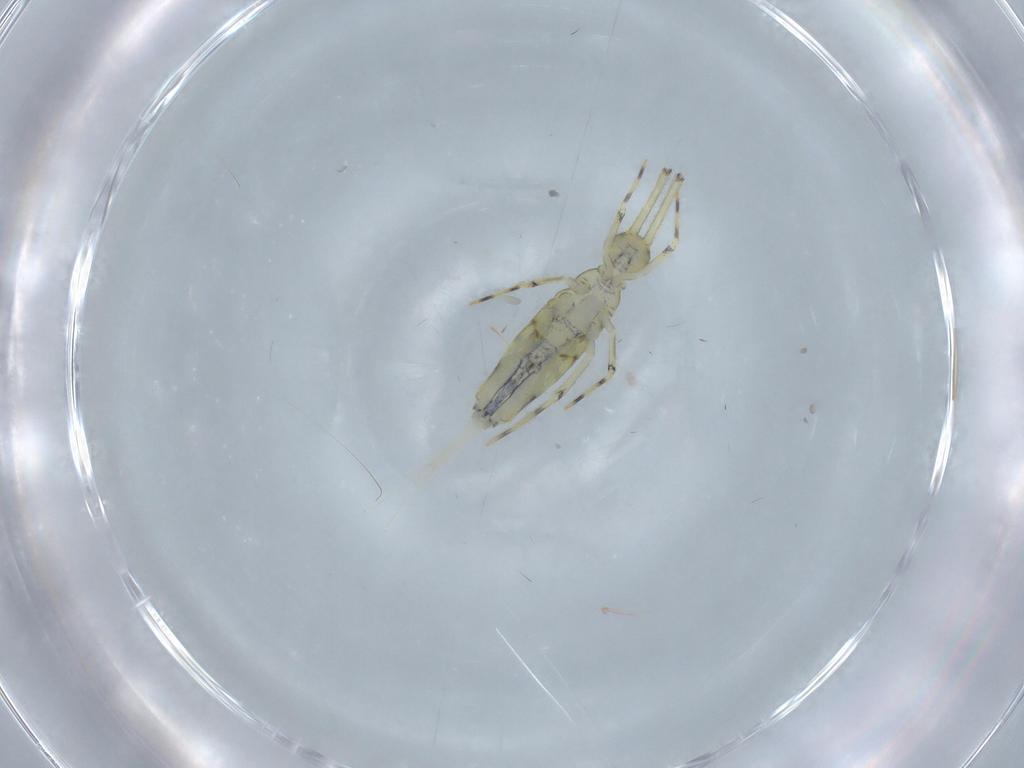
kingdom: Animalia
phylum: Arthropoda
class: Collembola
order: Entomobryomorpha
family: Paronellidae
